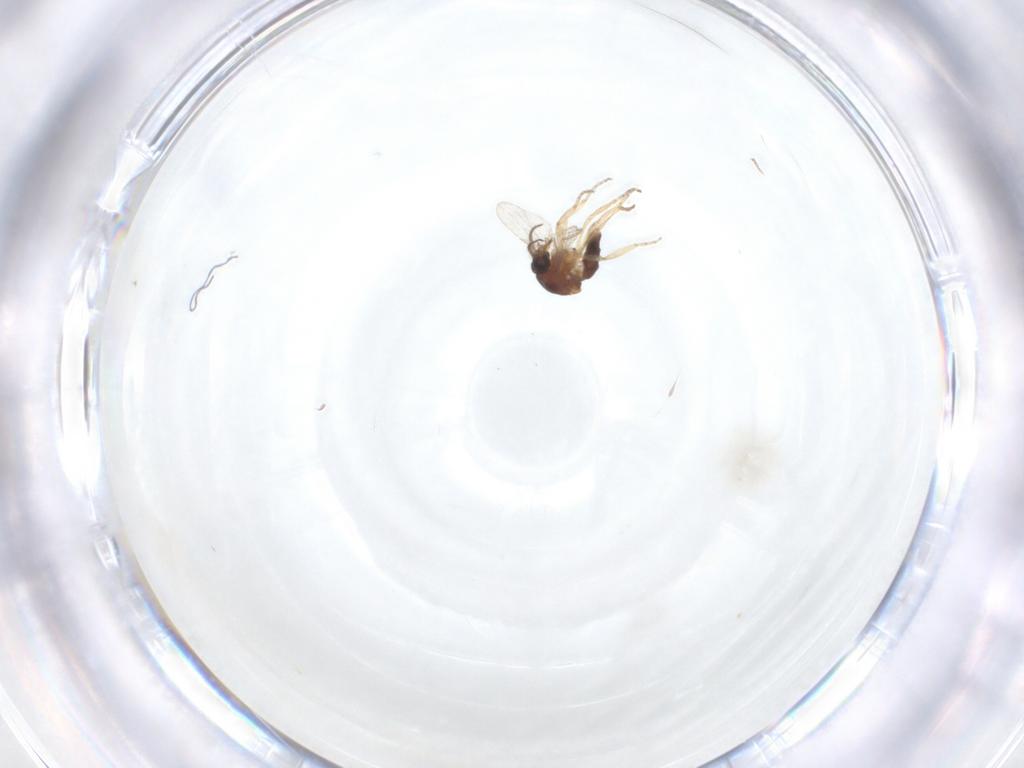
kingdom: Animalia
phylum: Arthropoda
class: Insecta
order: Diptera
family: Ceratopogonidae
